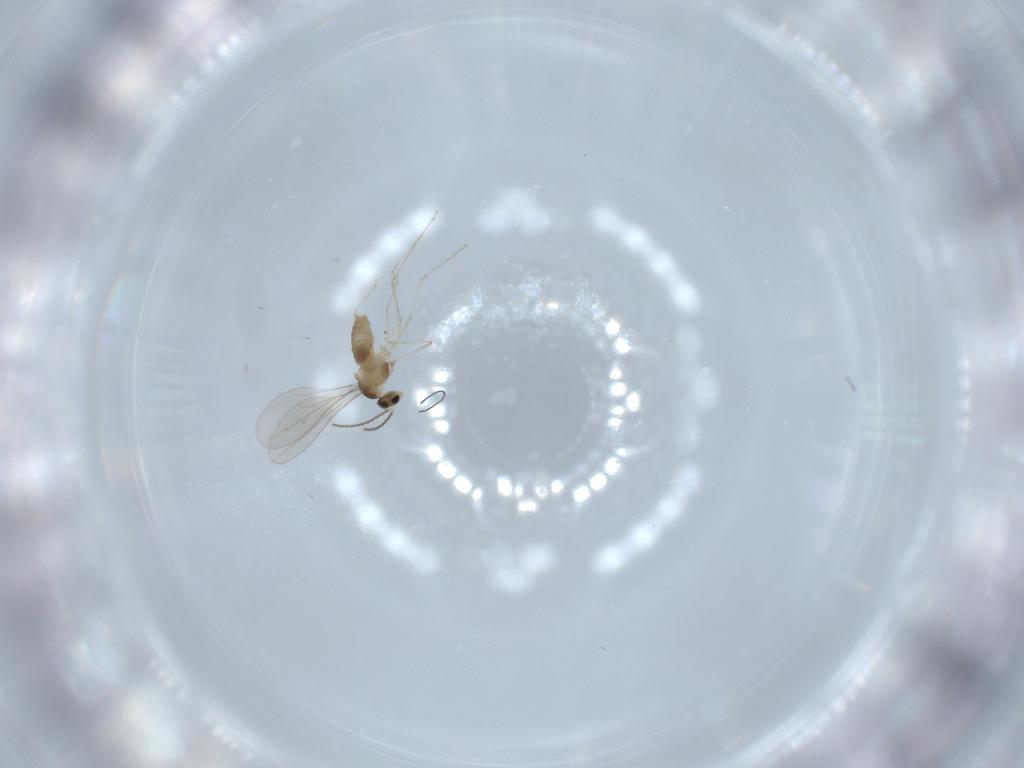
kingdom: Animalia
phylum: Arthropoda
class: Insecta
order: Diptera
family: Cecidomyiidae
